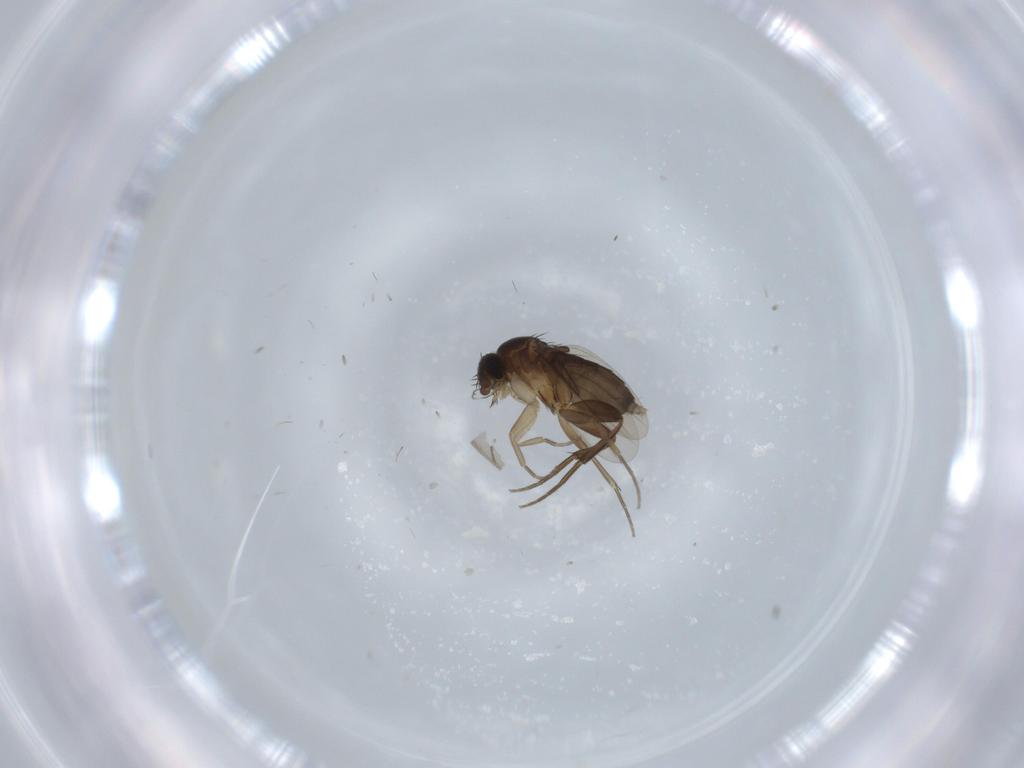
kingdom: Animalia
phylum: Arthropoda
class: Insecta
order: Diptera
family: Phoridae
